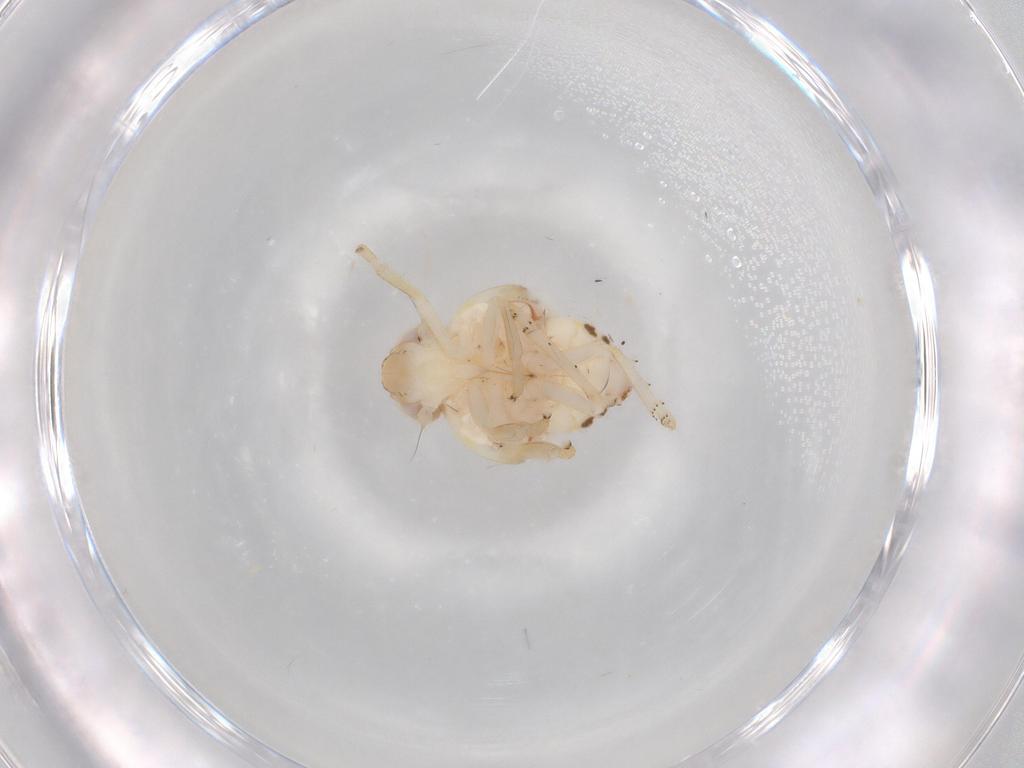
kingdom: Animalia
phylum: Arthropoda
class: Insecta
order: Hemiptera
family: Nogodinidae
